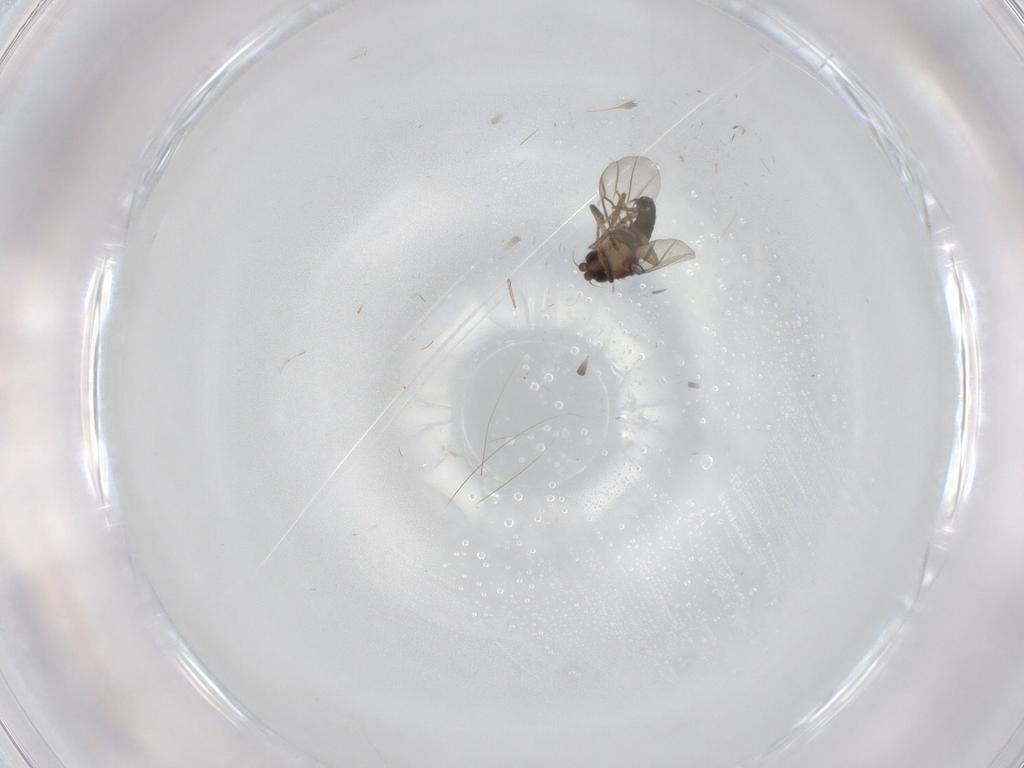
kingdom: Animalia
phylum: Arthropoda
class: Insecta
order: Diptera
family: Phoridae
